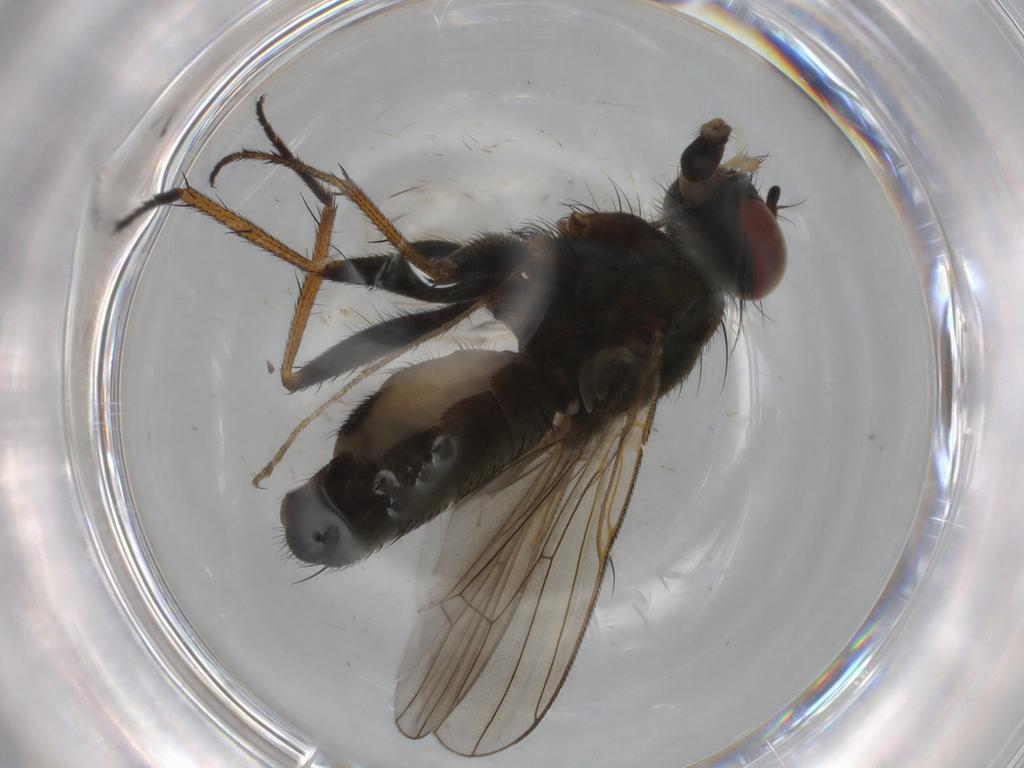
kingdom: Animalia
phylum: Arthropoda
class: Insecta
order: Diptera
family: Muscidae
